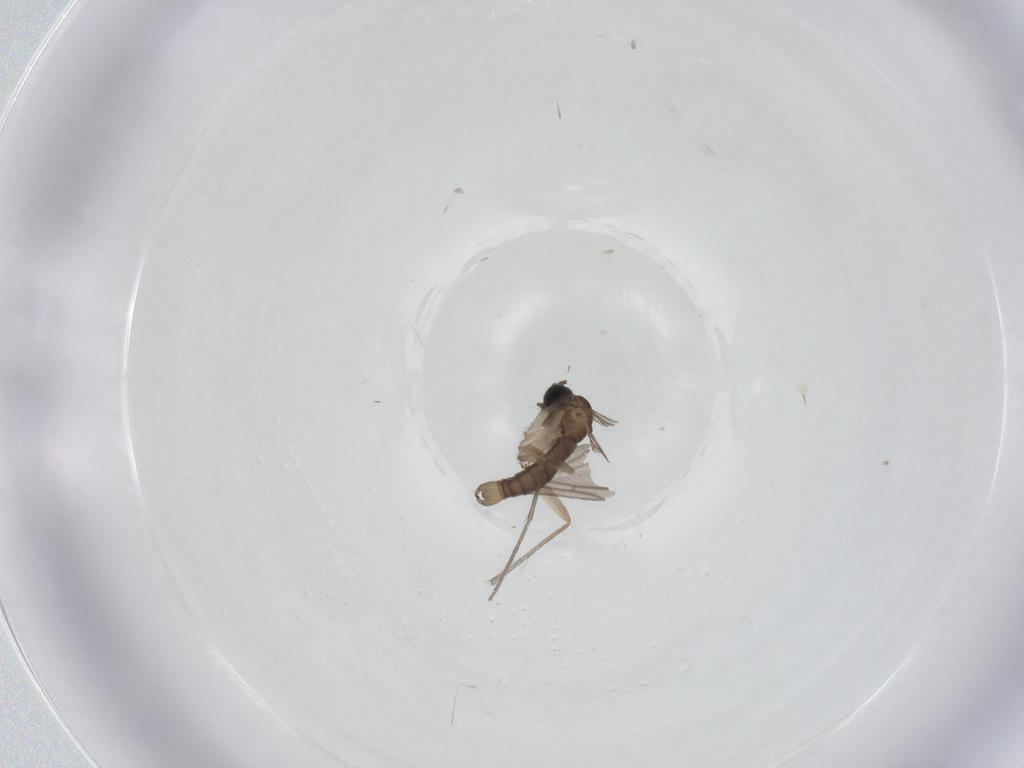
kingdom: Animalia
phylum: Arthropoda
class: Insecta
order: Diptera
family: Sciaridae
